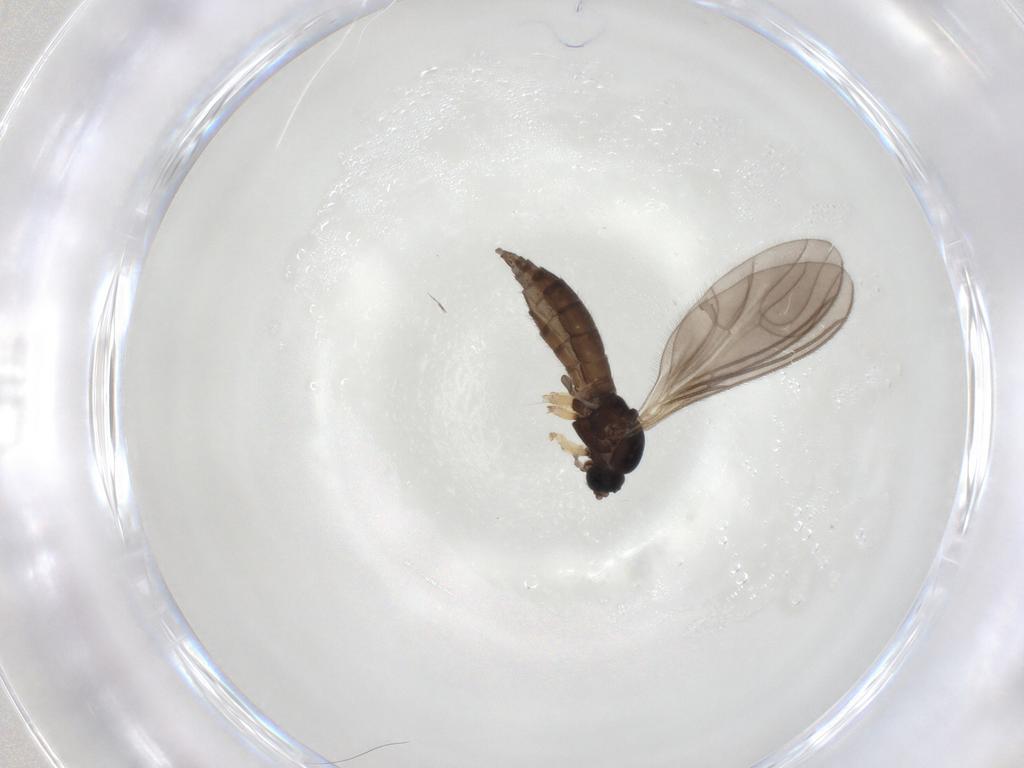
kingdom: Animalia
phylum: Arthropoda
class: Insecta
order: Diptera
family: Sciaridae
